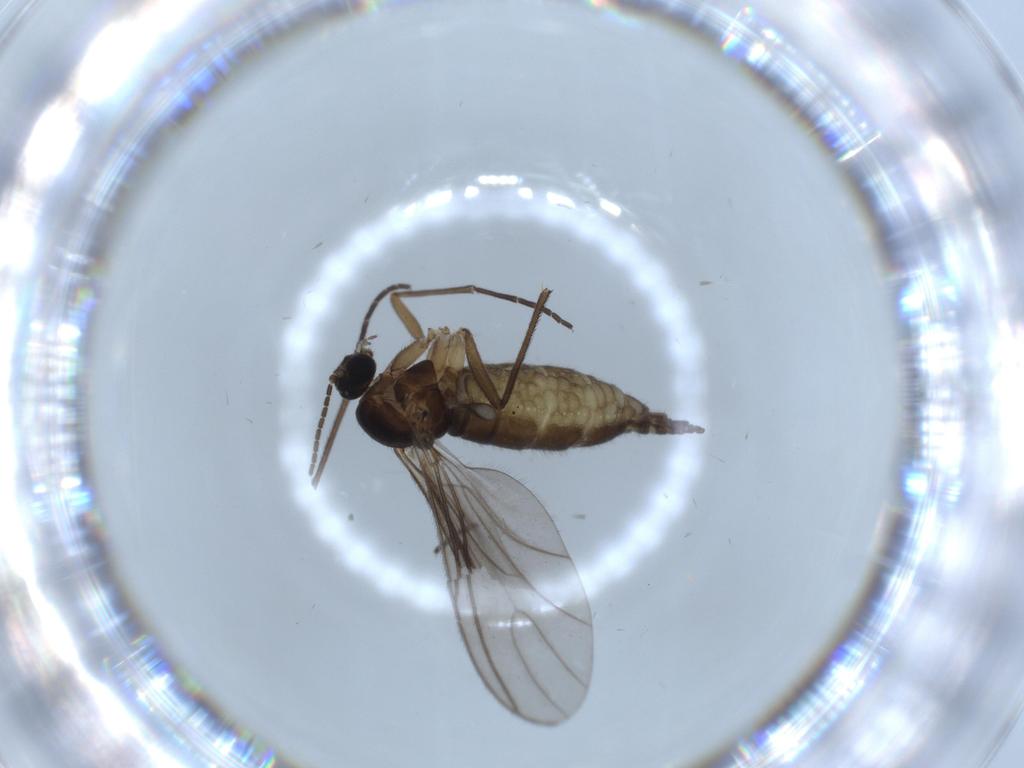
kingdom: Animalia
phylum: Arthropoda
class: Insecta
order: Diptera
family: Sciaridae
